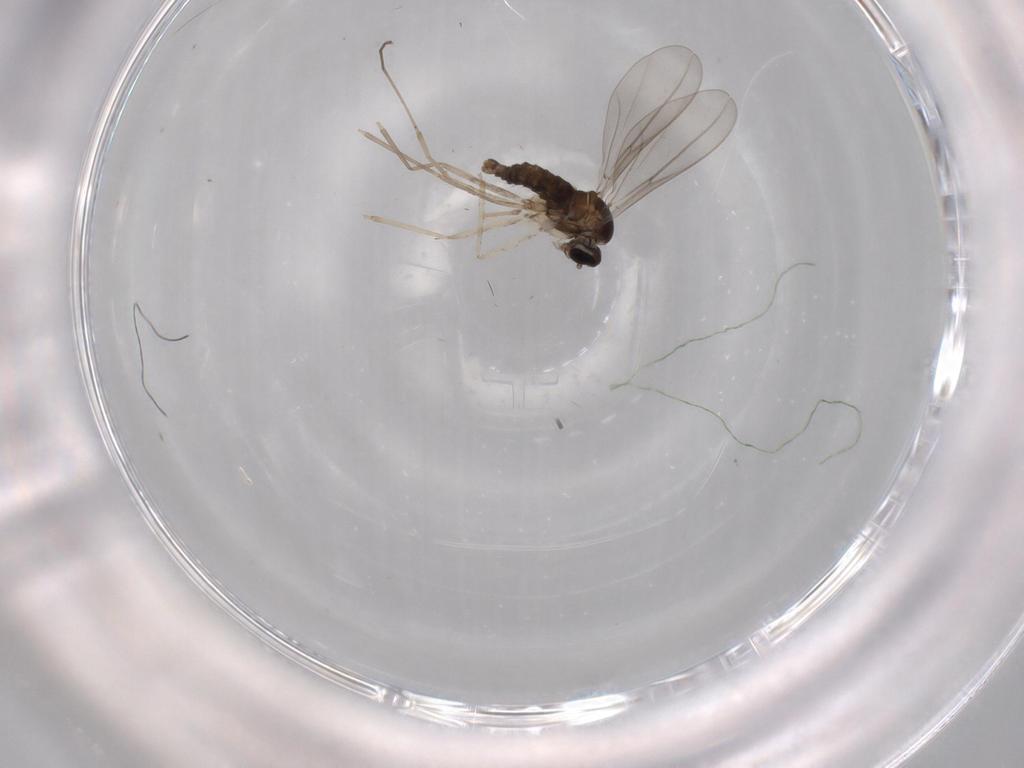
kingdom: Animalia
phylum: Arthropoda
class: Insecta
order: Diptera
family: Cecidomyiidae
